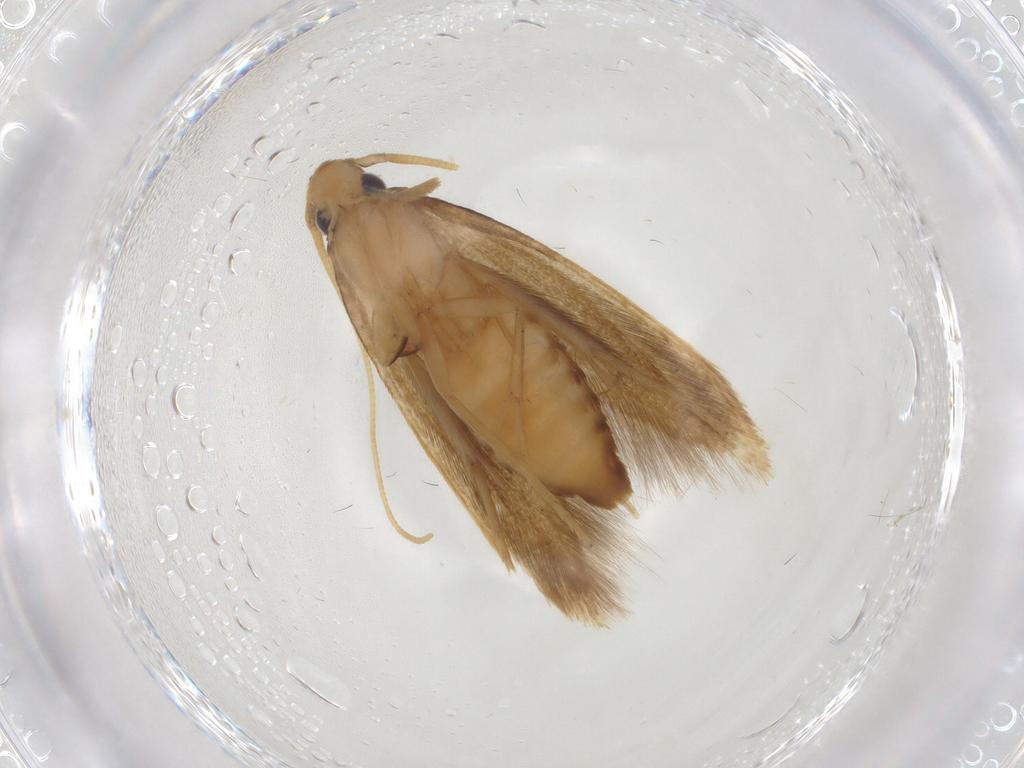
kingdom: Animalia
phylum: Arthropoda
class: Insecta
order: Lepidoptera
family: Tineidae
